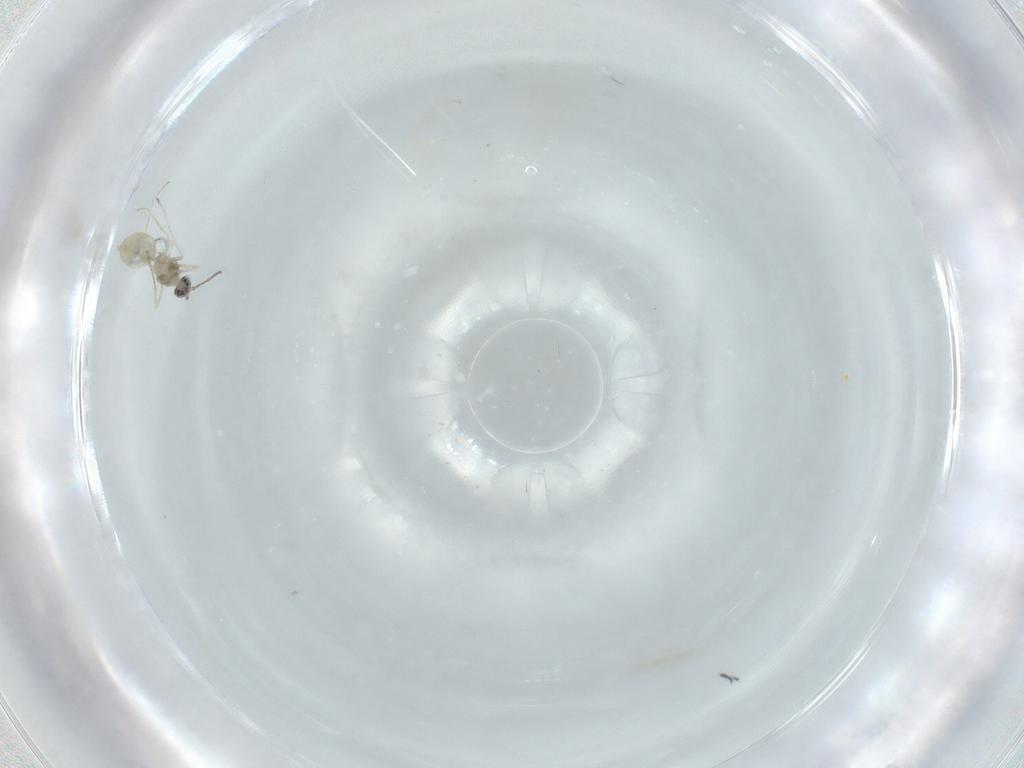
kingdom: Animalia
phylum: Arthropoda
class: Insecta
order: Diptera
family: Cecidomyiidae
